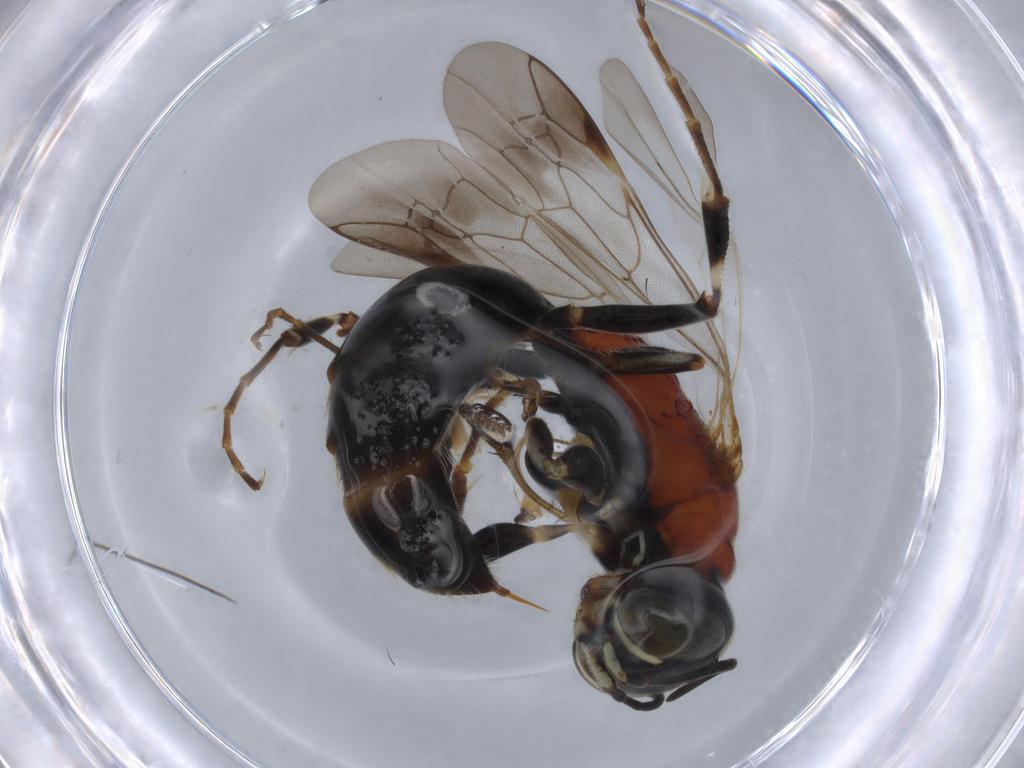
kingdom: Animalia
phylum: Arthropoda
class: Insecta
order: Hymenoptera
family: Bembicidae
